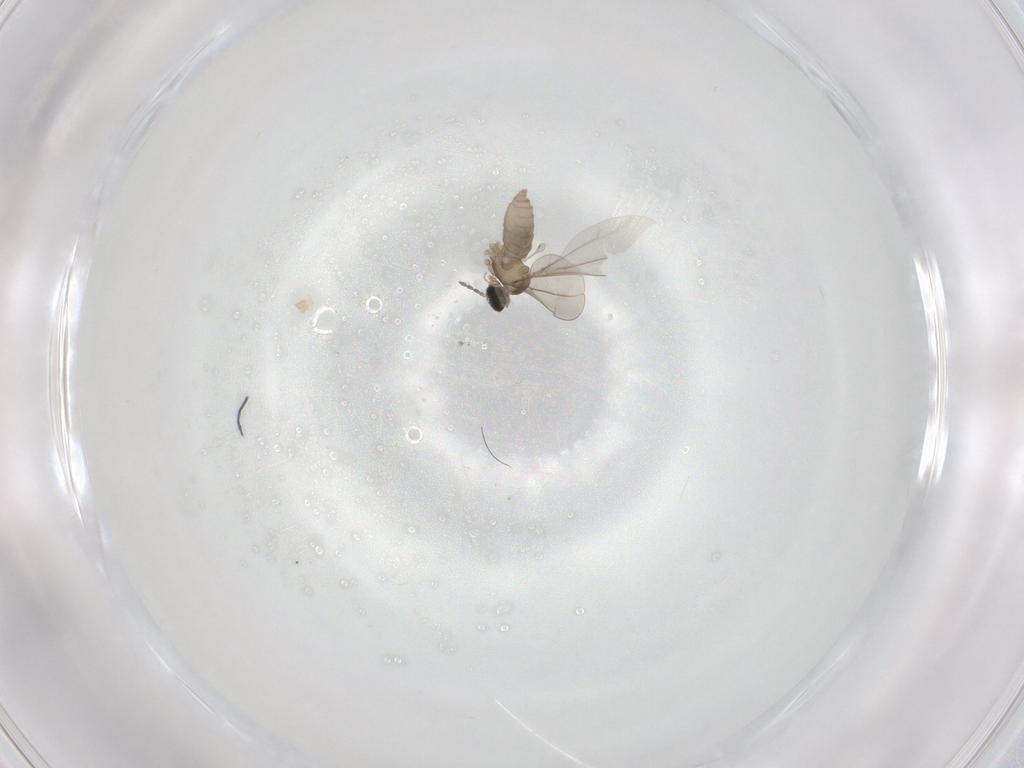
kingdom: Animalia
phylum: Arthropoda
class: Insecta
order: Diptera
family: Cecidomyiidae
